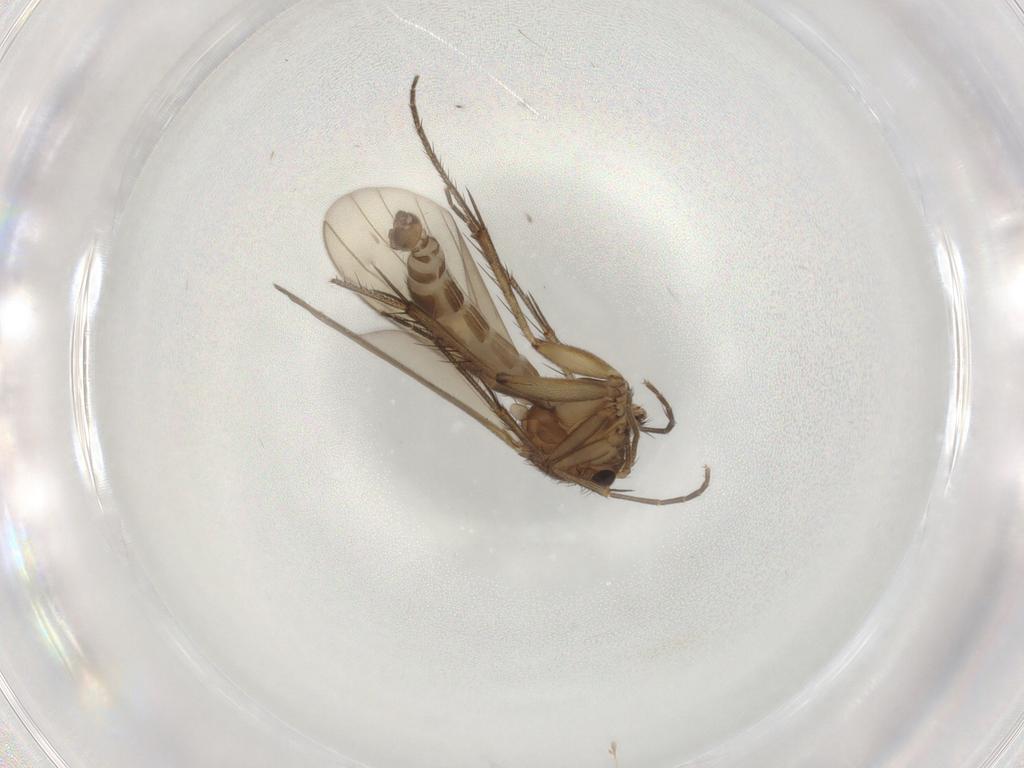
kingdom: Animalia
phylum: Arthropoda
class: Insecta
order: Diptera
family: Mycetophilidae
